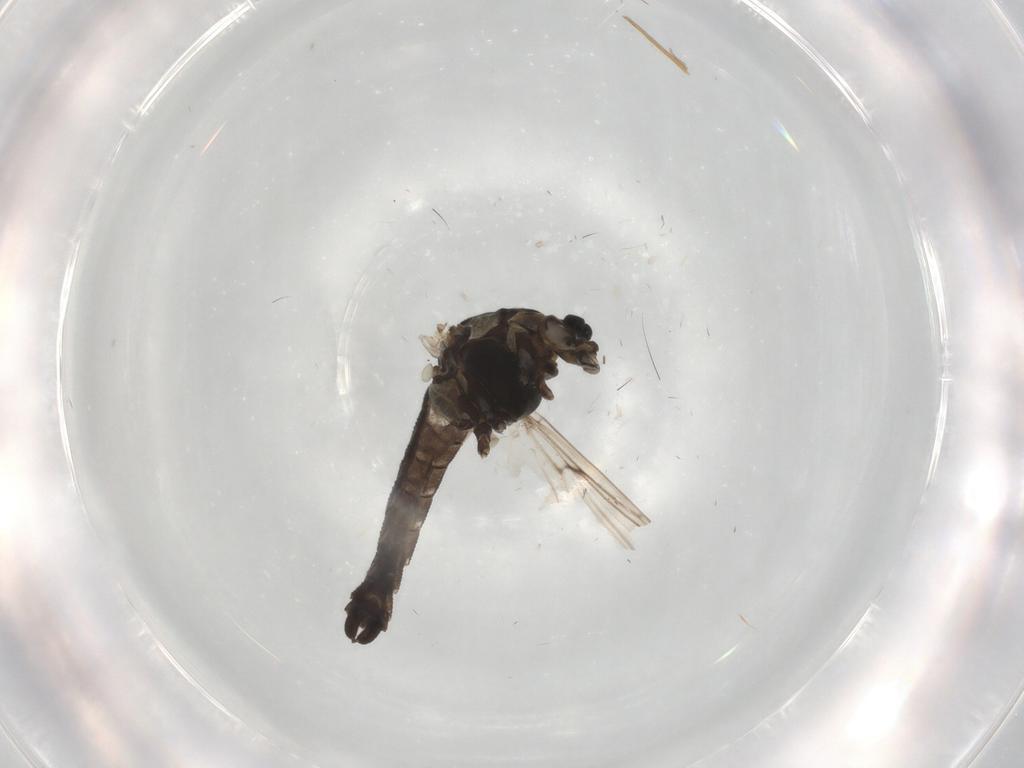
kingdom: Animalia
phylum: Arthropoda
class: Insecta
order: Diptera
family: Chironomidae
